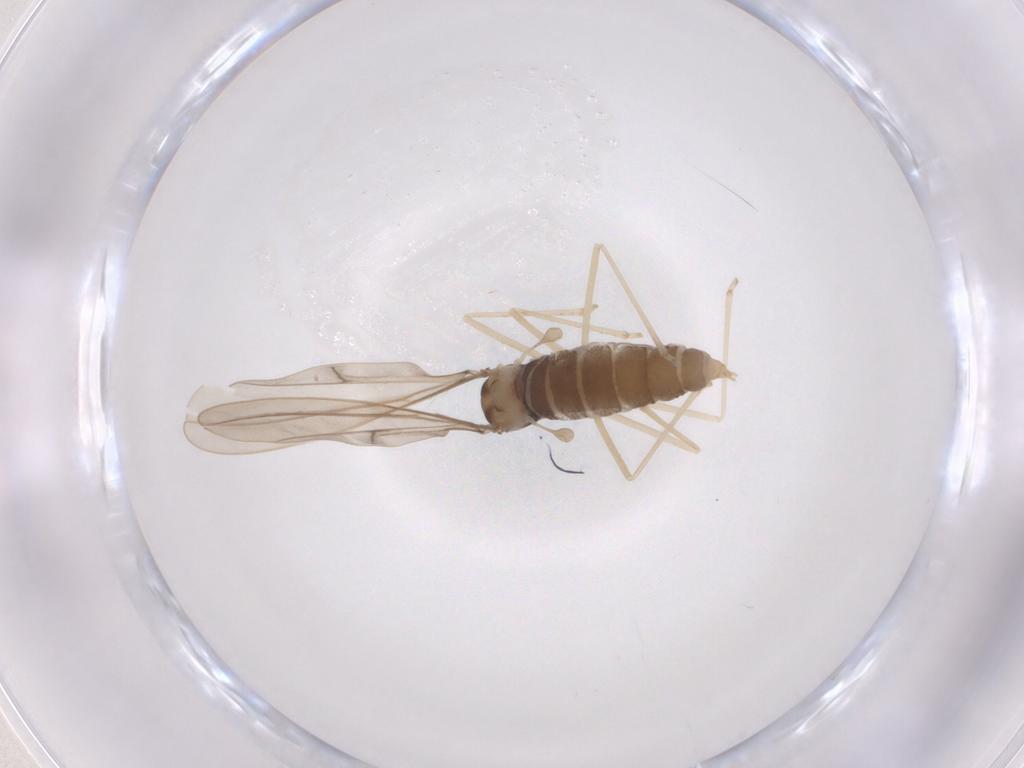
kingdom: Animalia
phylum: Arthropoda
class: Insecta
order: Diptera
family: Cecidomyiidae
